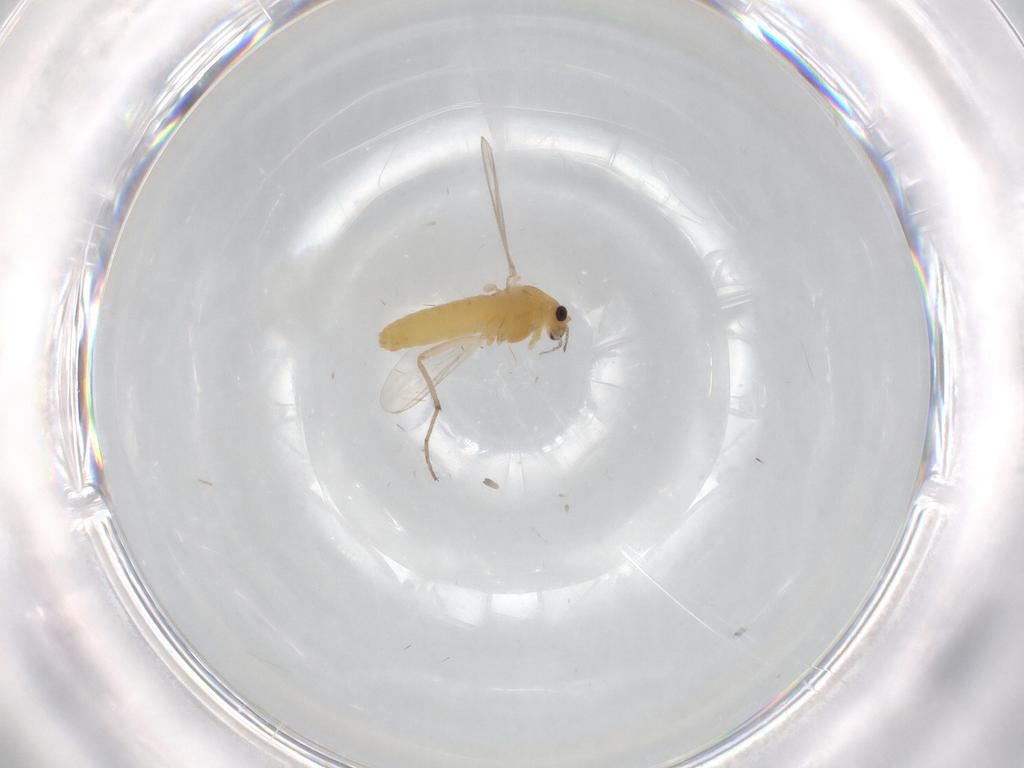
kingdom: Animalia
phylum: Arthropoda
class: Insecta
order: Diptera
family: Chironomidae
